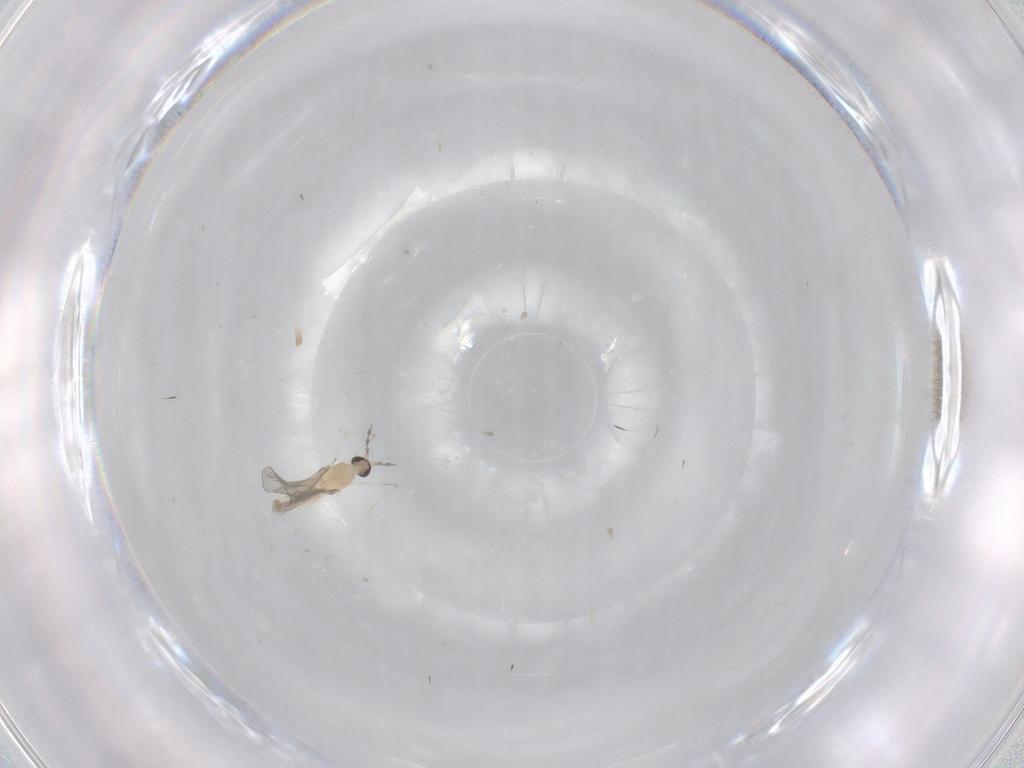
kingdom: Animalia
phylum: Arthropoda
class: Insecta
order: Diptera
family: Cecidomyiidae
